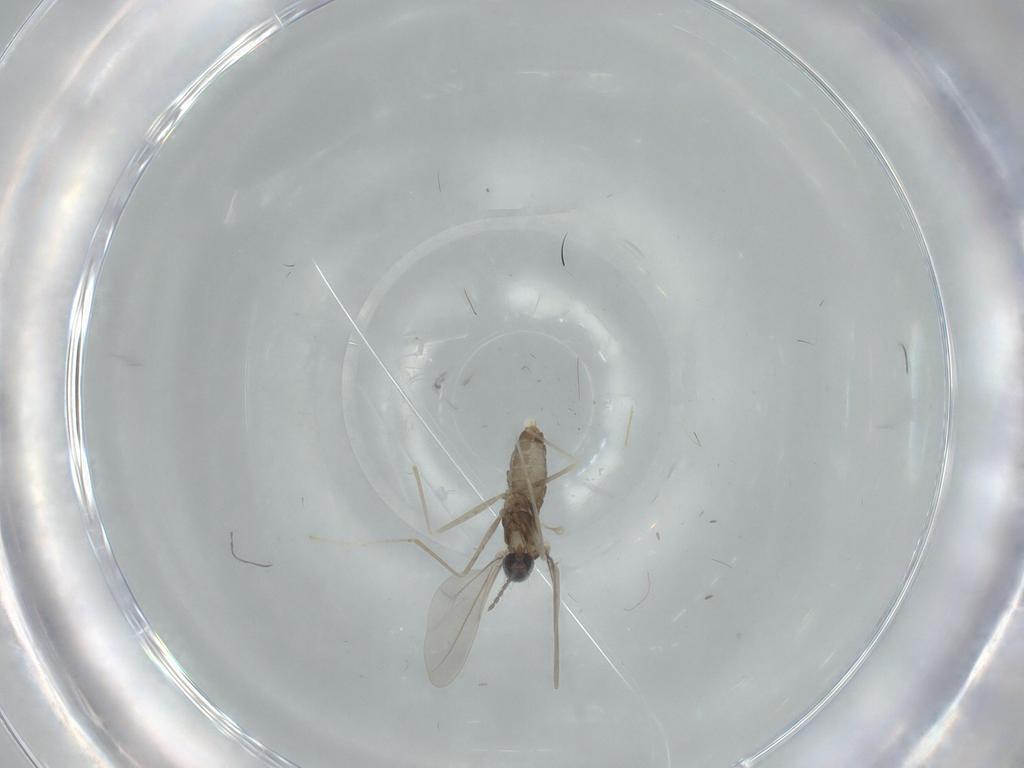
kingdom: Animalia
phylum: Arthropoda
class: Insecta
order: Diptera
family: Cecidomyiidae
